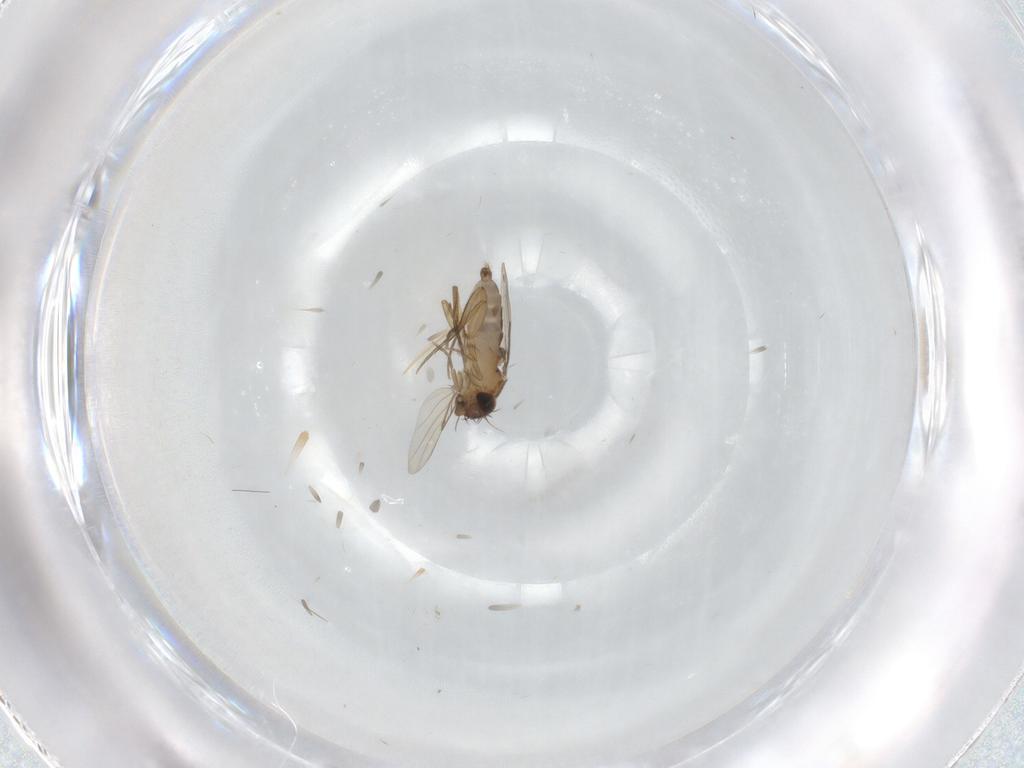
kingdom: Animalia
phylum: Arthropoda
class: Insecta
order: Diptera
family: Phoridae
